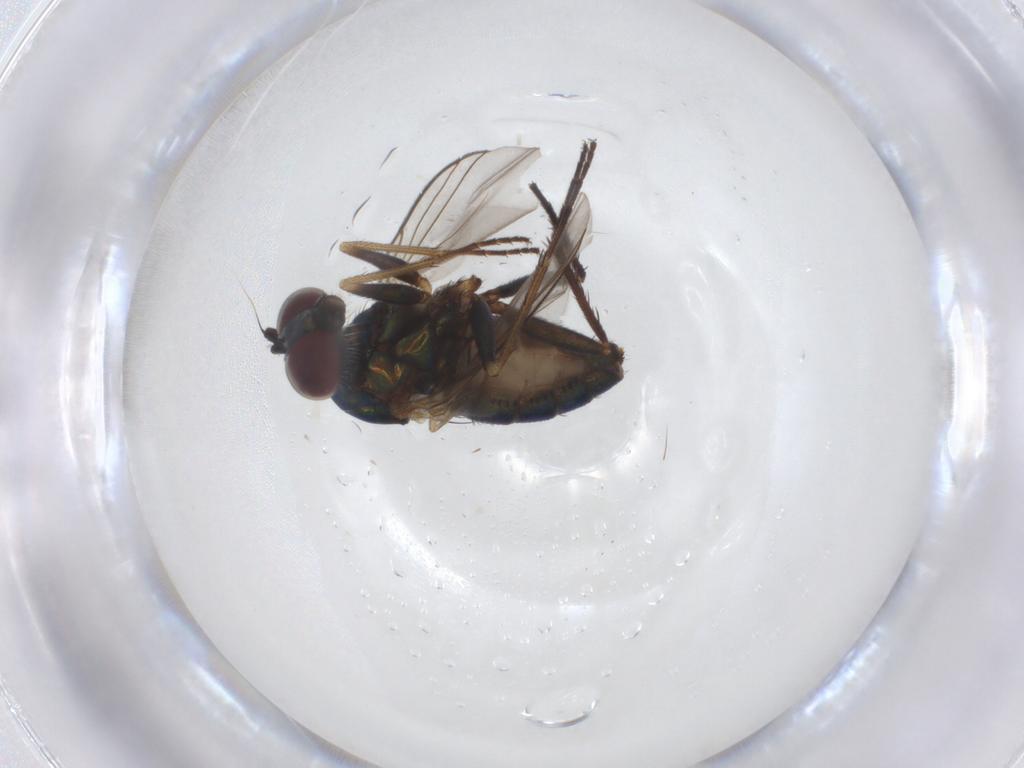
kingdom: Animalia
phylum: Arthropoda
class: Insecta
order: Diptera
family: Dolichopodidae
